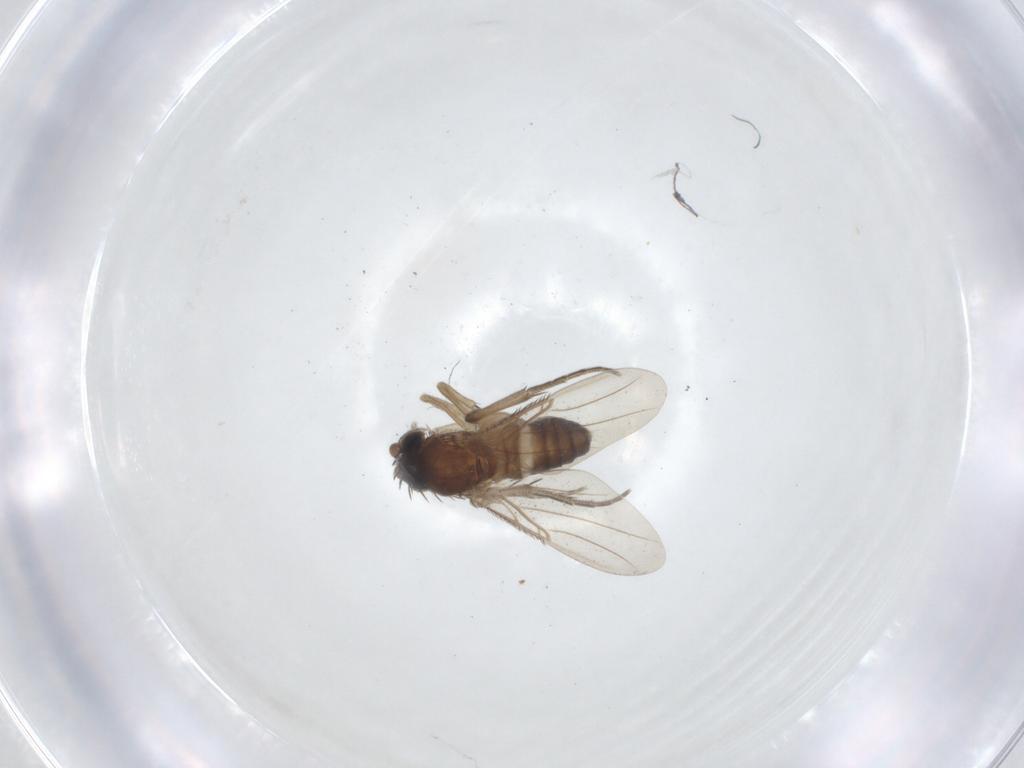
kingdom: Animalia
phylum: Arthropoda
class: Insecta
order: Diptera
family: Phoridae
